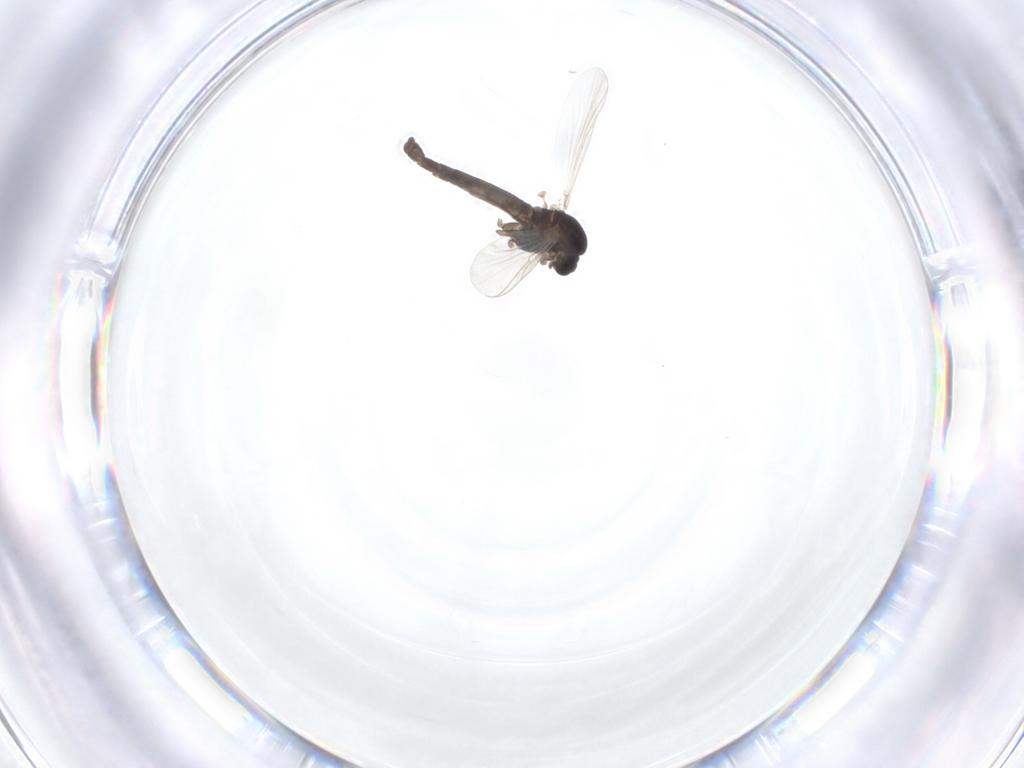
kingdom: Animalia
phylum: Arthropoda
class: Insecta
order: Diptera
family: Chironomidae
